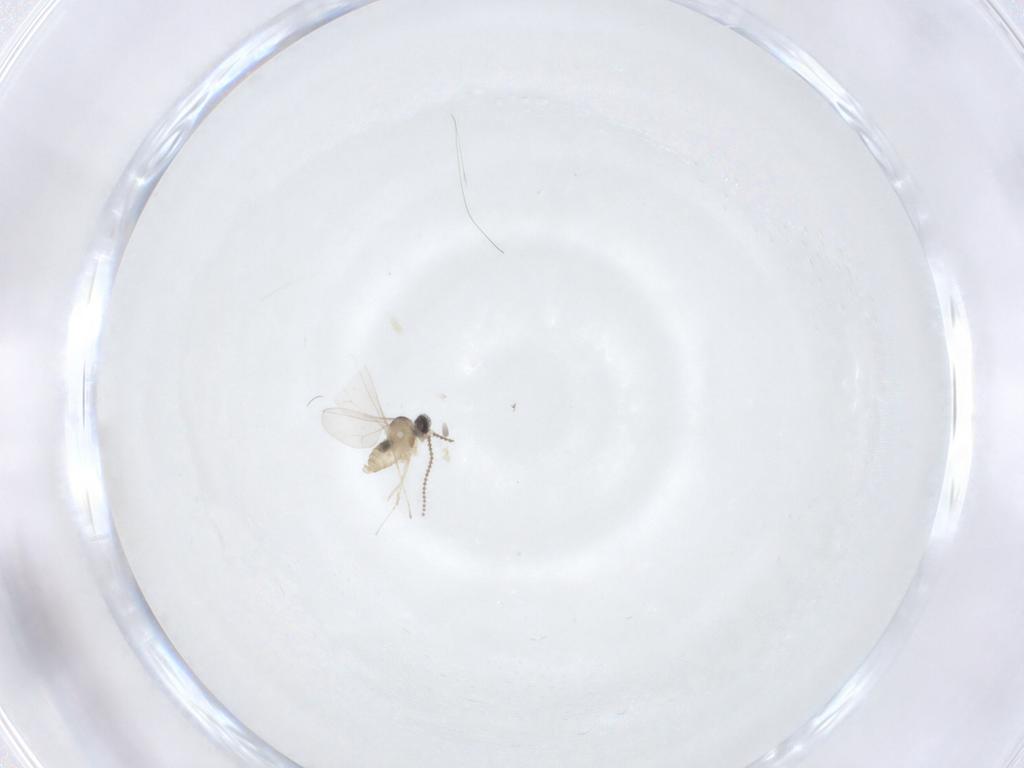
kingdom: Animalia
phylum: Arthropoda
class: Insecta
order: Diptera
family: Cecidomyiidae
